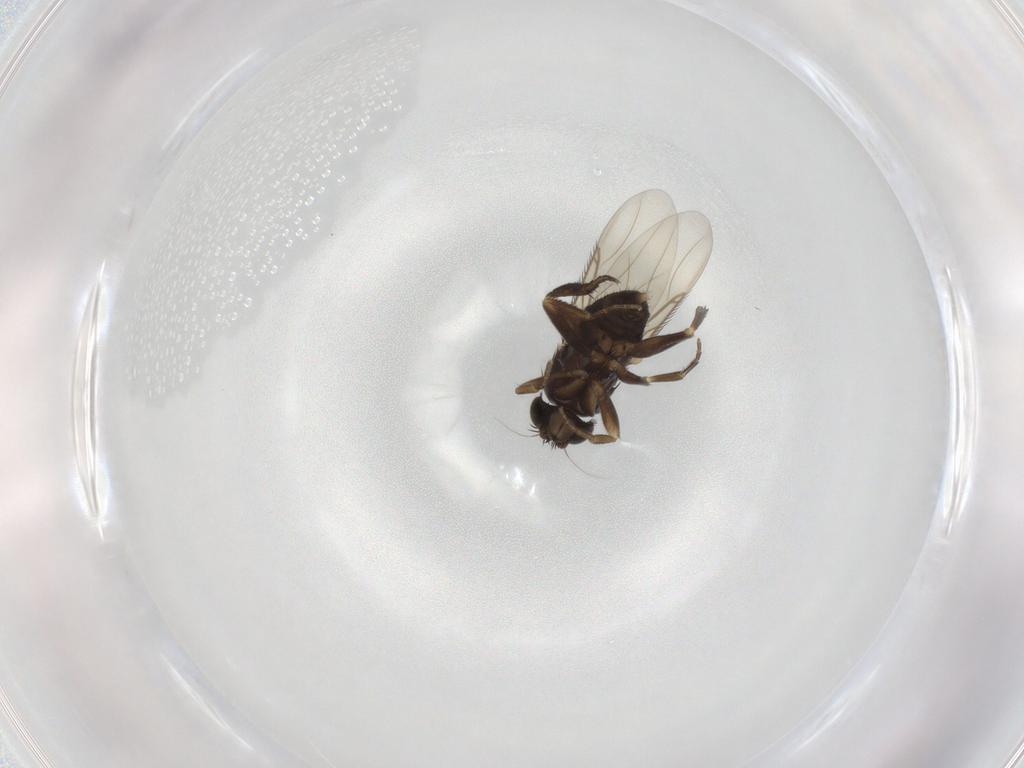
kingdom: Animalia
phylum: Arthropoda
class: Insecta
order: Diptera
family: Phoridae
